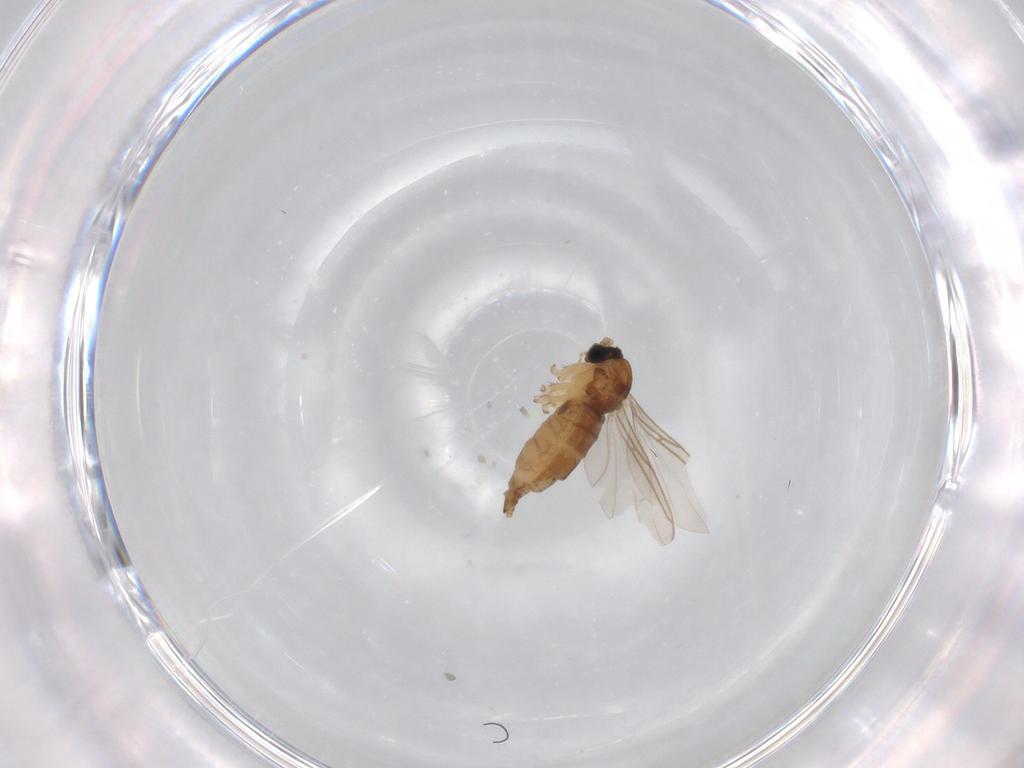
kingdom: Animalia
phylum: Arthropoda
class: Insecta
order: Diptera
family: Sciaridae
